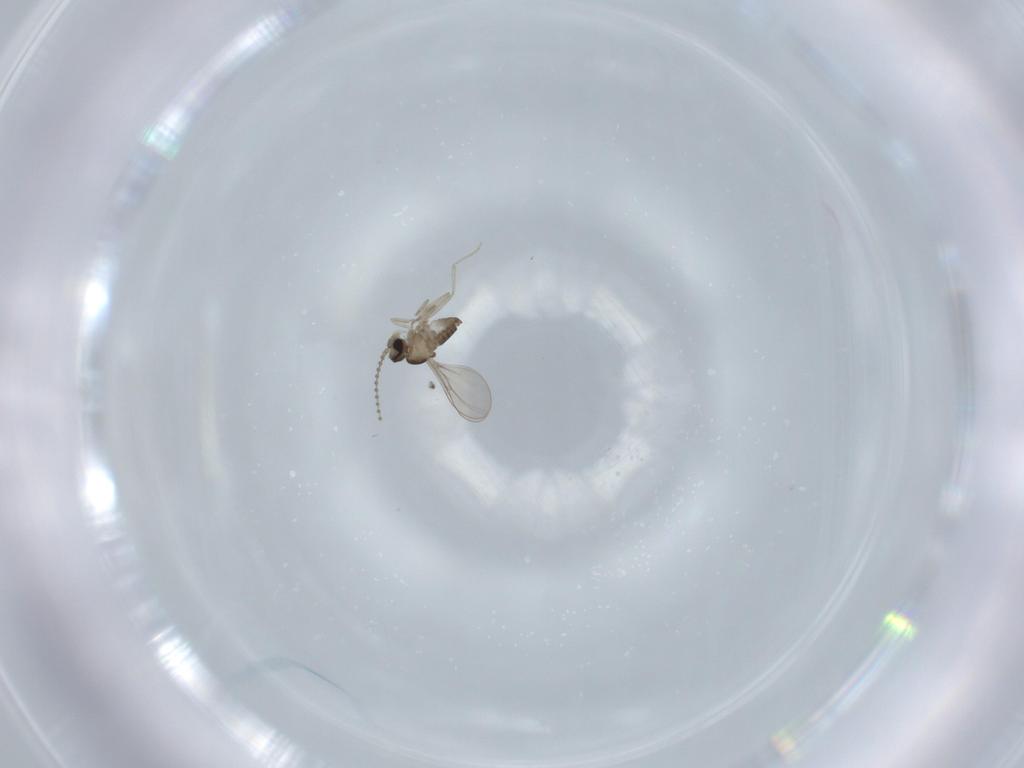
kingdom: Animalia
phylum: Arthropoda
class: Insecta
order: Diptera
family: Cecidomyiidae
